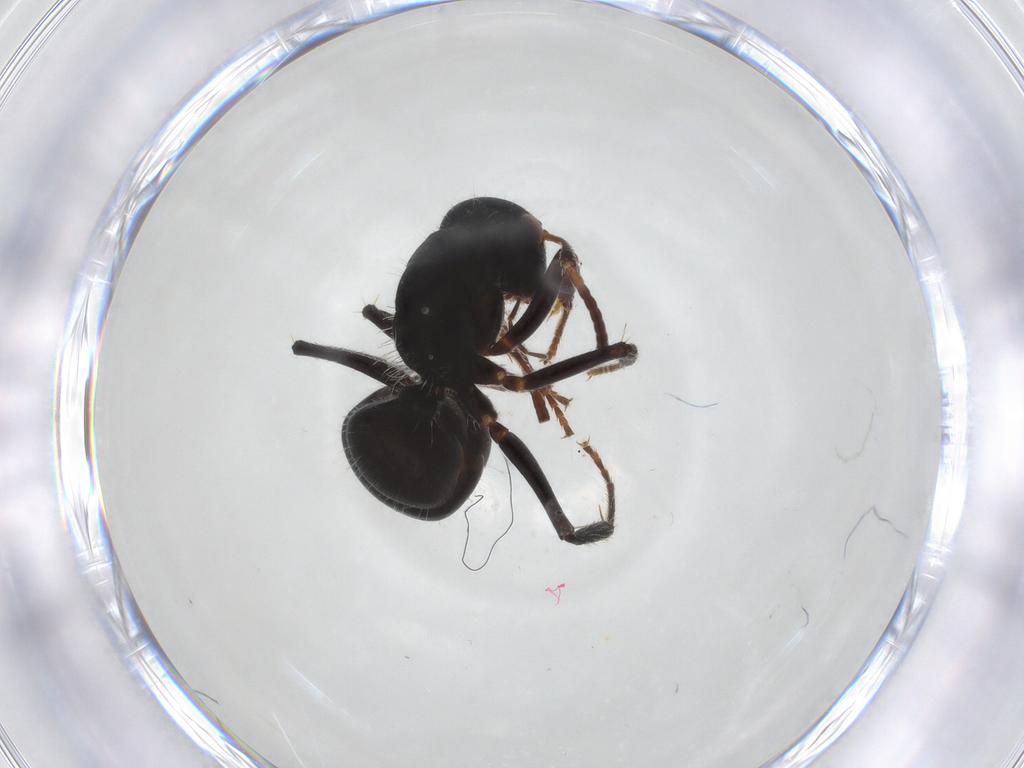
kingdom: Animalia
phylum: Arthropoda
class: Insecta
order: Hymenoptera
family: Formicidae
